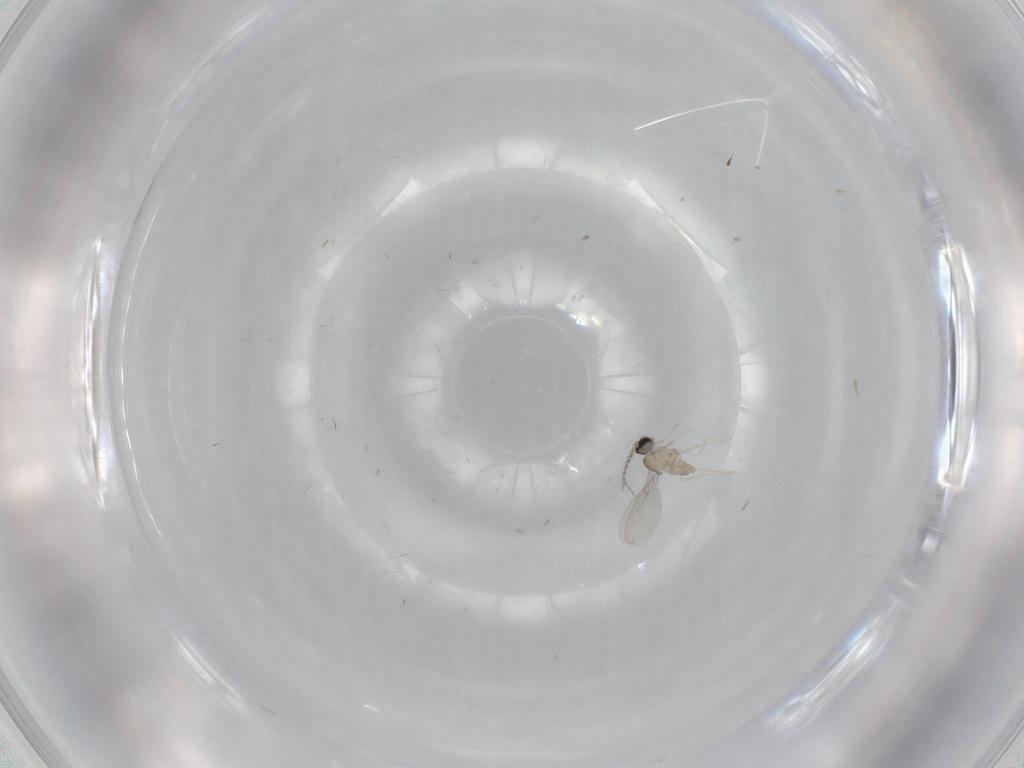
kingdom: Animalia
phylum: Arthropoda
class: Insecta
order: Diptera
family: Cecidomyiidae
